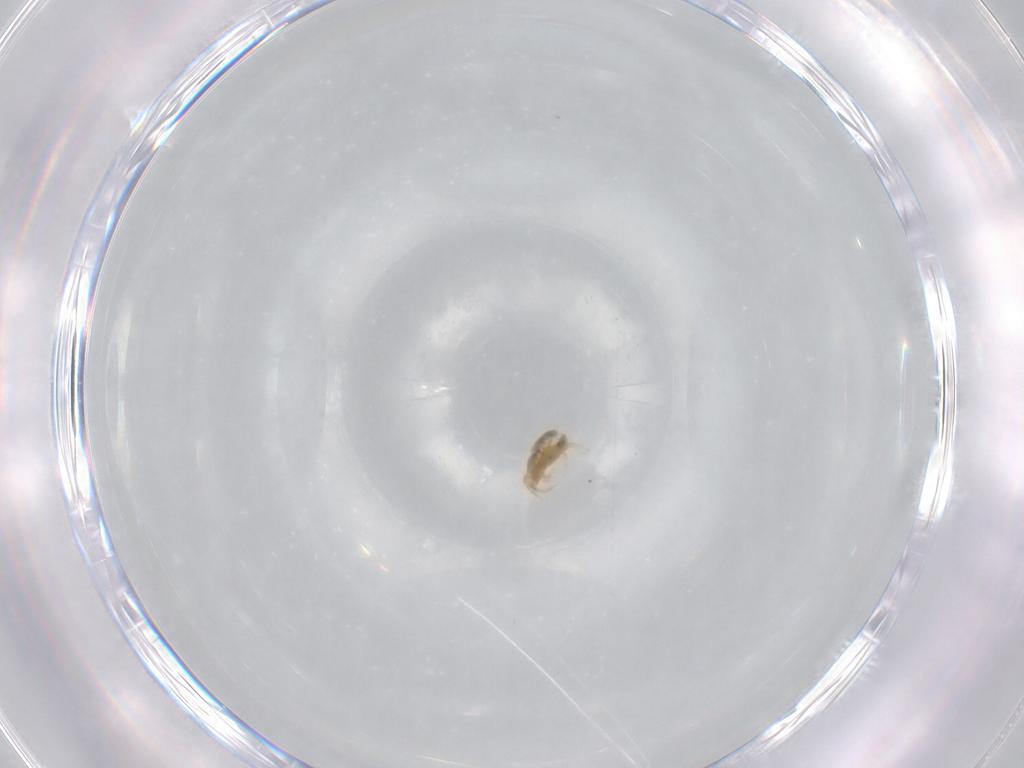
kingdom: Animalia
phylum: Arthropoda
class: Arachnida
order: Trombidiformes
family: Stigmaeidae
